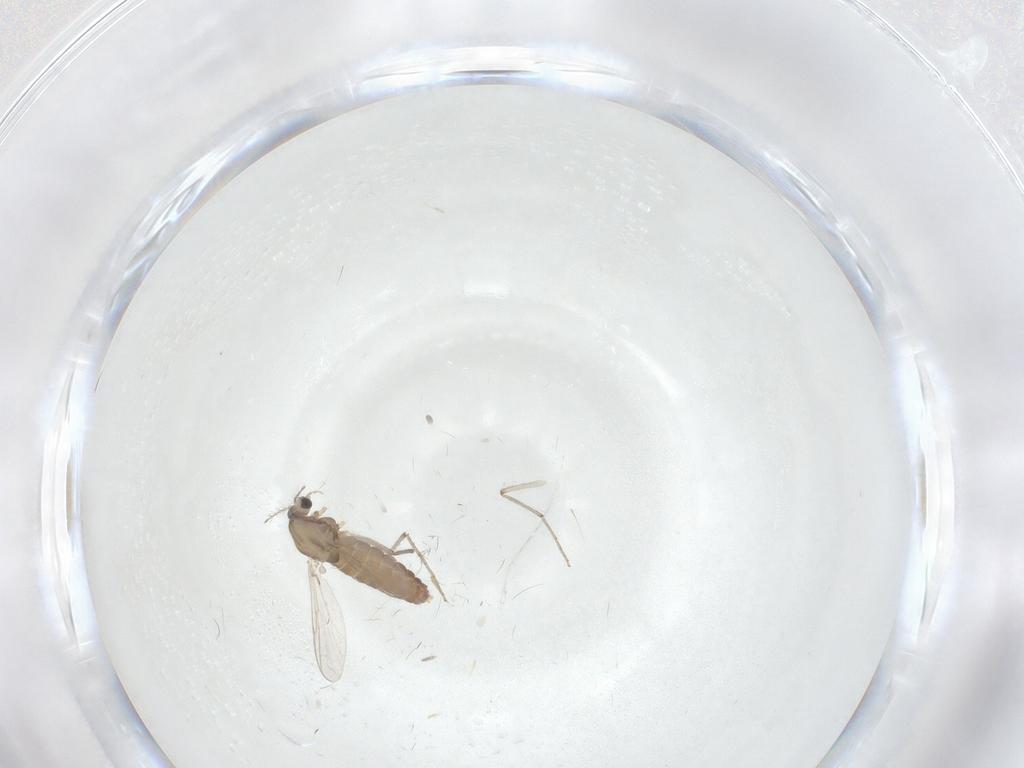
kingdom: Animalia
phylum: Arthropoda
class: Insecta
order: Diptera
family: Chironomidae
